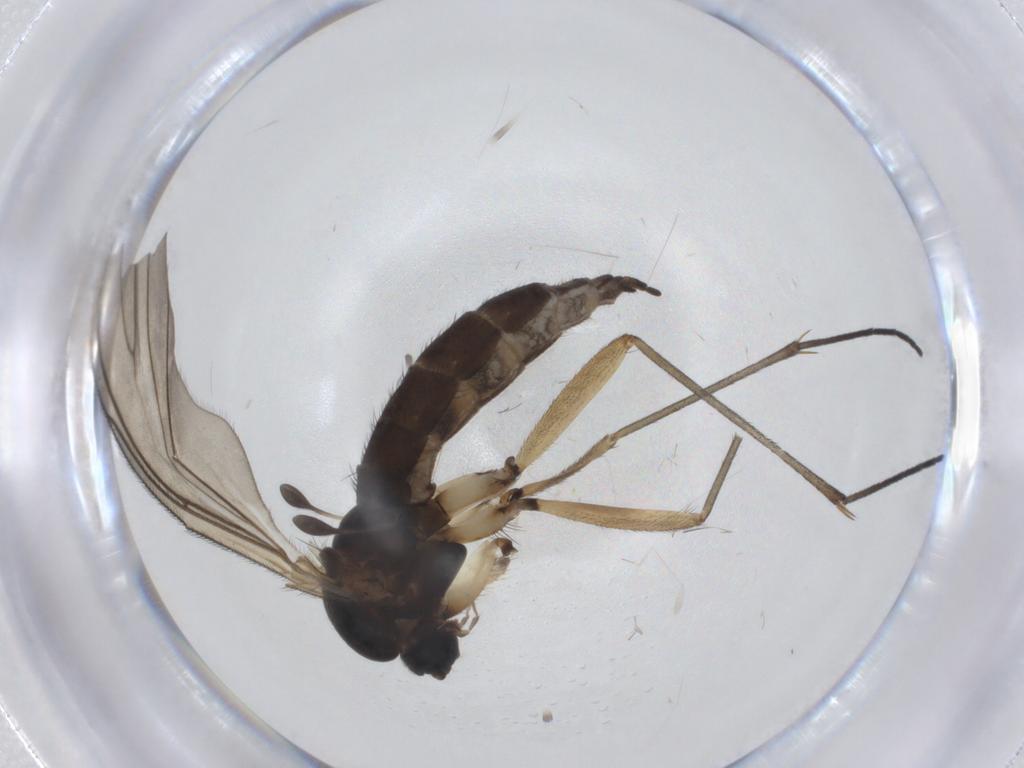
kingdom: Animalia
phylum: Arthropoda
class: Insecta
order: Diptera
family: Sciaridae
